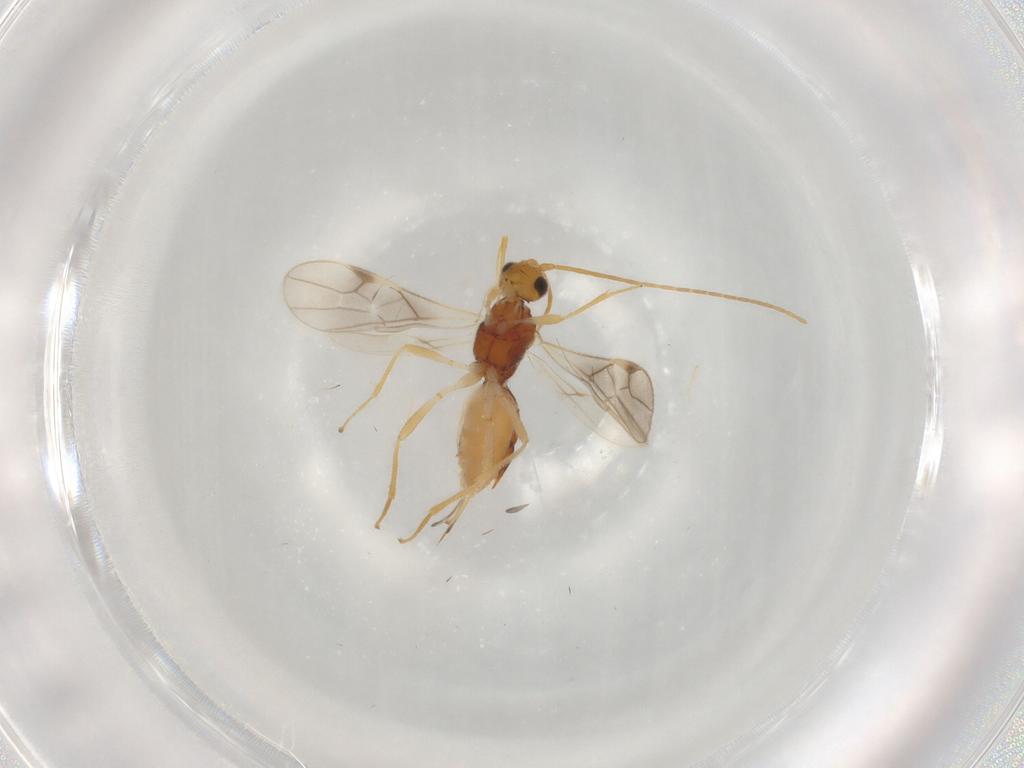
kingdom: Animalia
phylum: Arthropoda
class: Insecta
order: Hymenoptera
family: Braconidae
